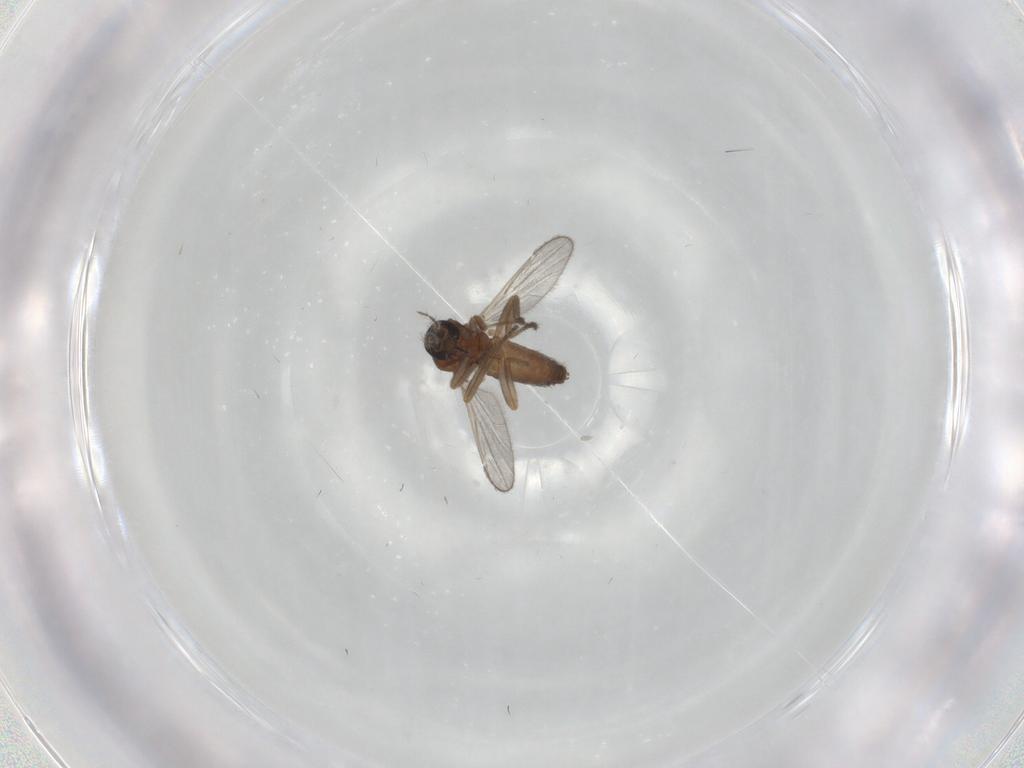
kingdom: Animalia
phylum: Arthropoda
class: Insecta
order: Diptera
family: Ceratopogonidae
